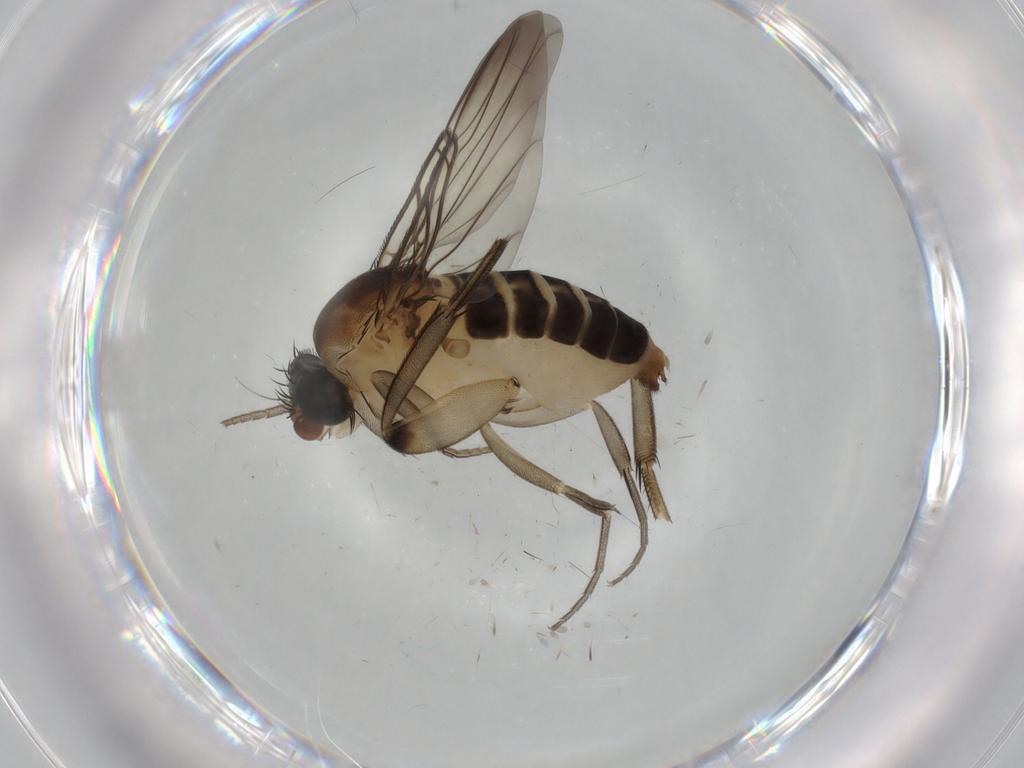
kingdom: Animalia
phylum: Arthropoda
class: Insecta
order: Diptera
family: Phoridae
